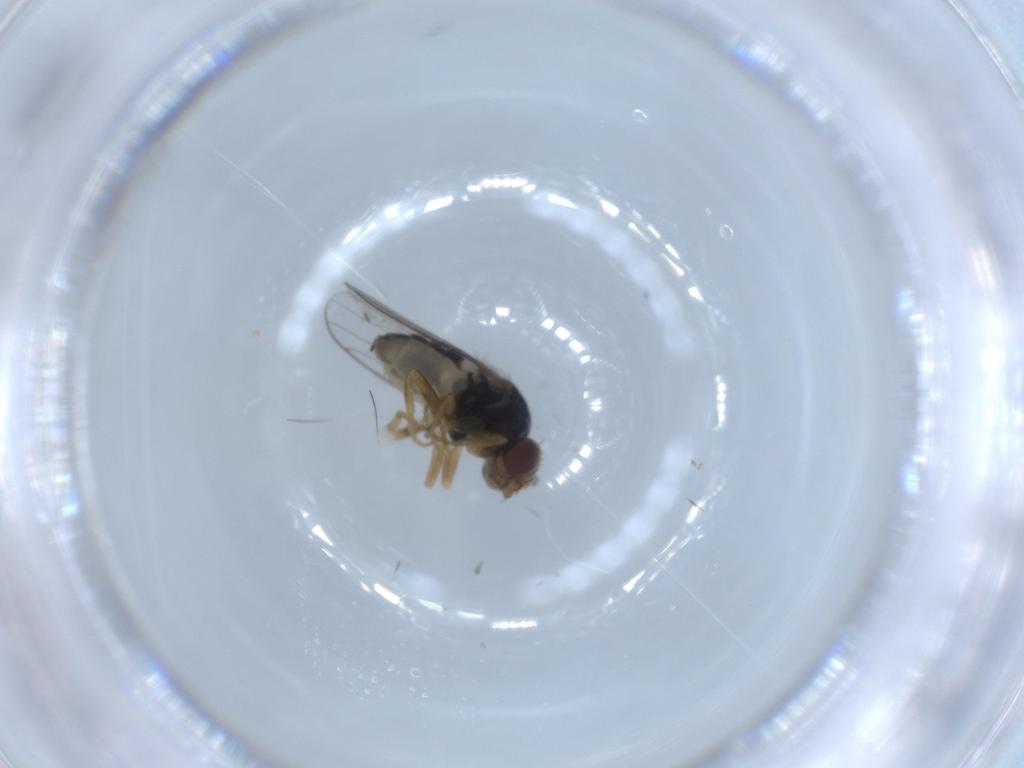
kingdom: Animalia
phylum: Arthropoda
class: Insecta
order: Diptera
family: Chloropidae
